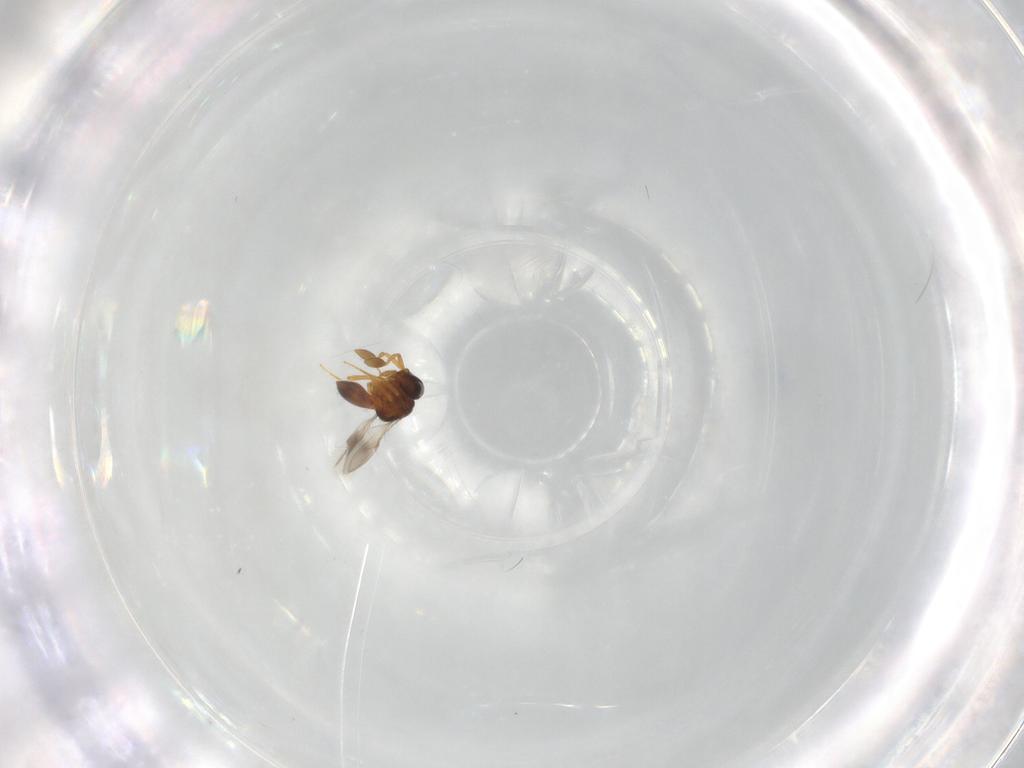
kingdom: Animalia
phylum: Arthropoda
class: Insecta
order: Hymenoptera
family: Scelionidae
